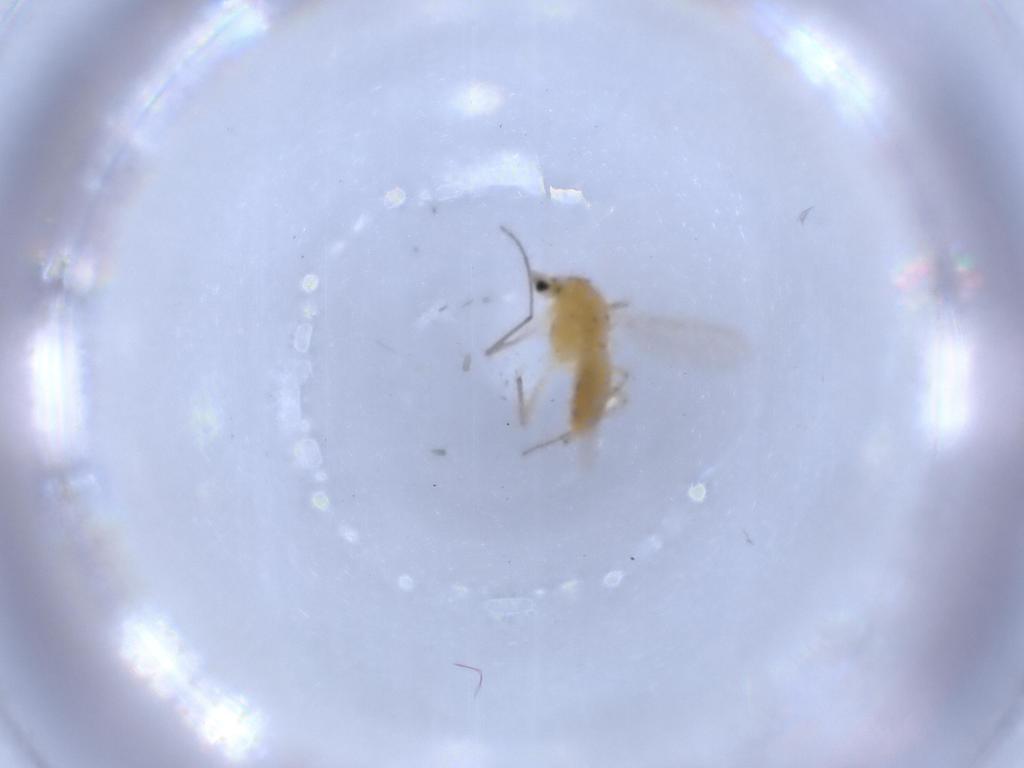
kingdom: Animalia
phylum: Arthropoda
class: Insecta
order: Diptera
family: Chironomidae
